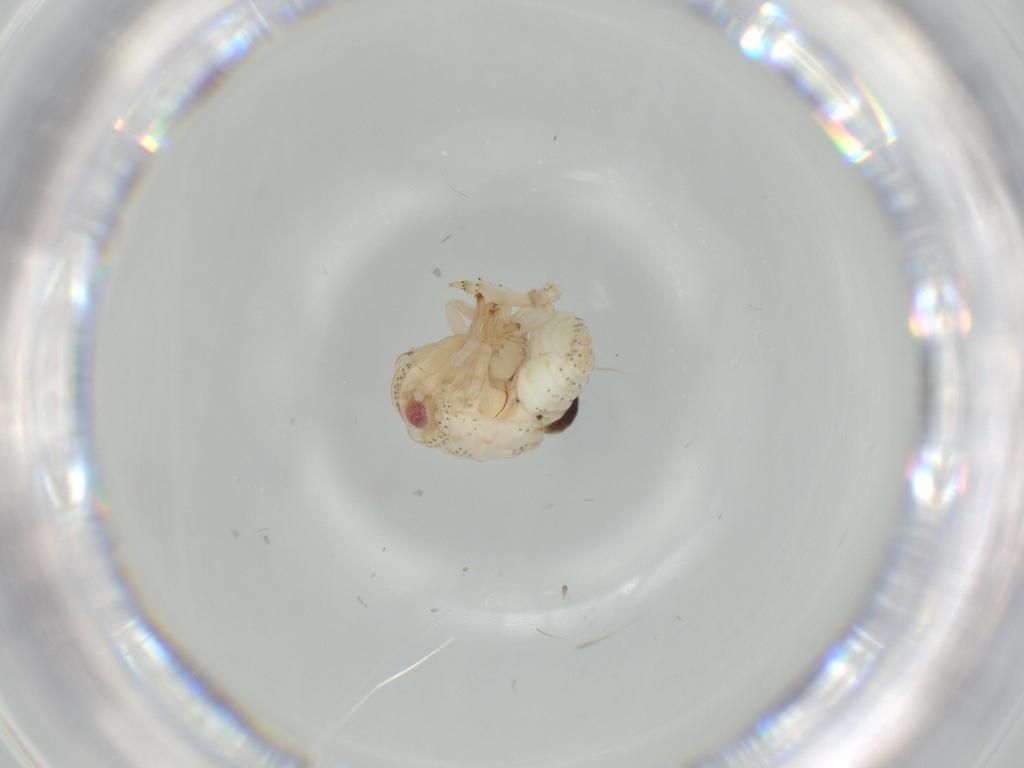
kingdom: Animalia
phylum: Arthropoda
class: Insecta
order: Hemiptera
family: Acanaloniidae
